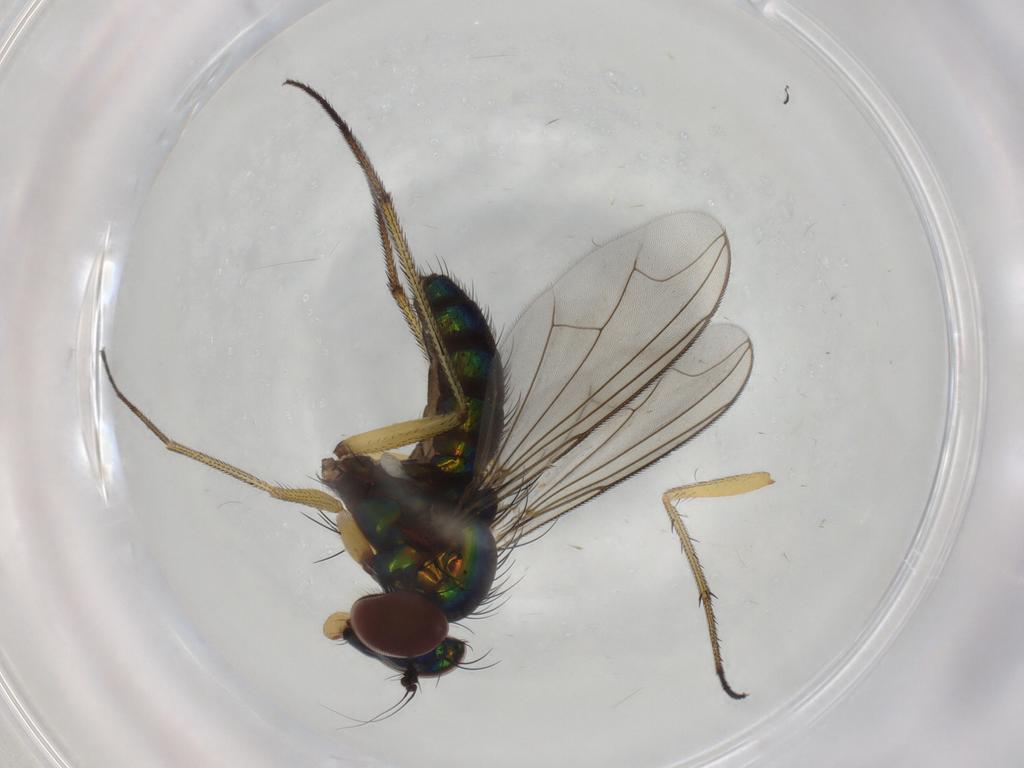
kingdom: Animalia
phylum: Arthropoda
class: Insecta
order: Diptera
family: Dolichopodidae
